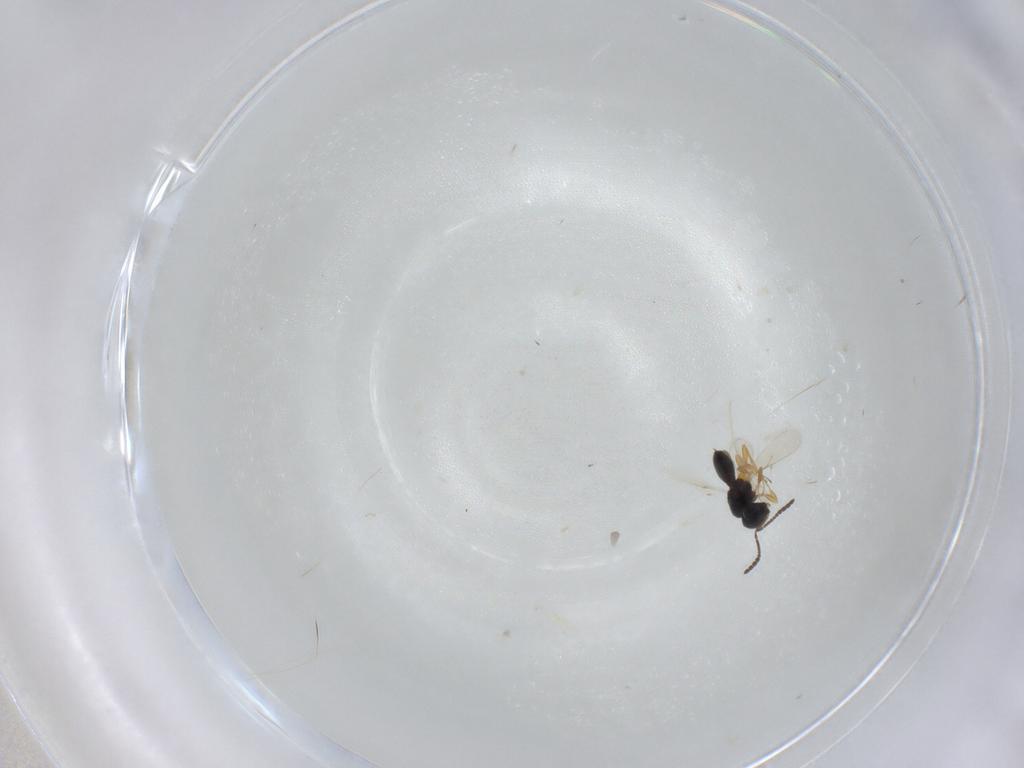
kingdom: Animalia
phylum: Arthropoda
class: Insecta
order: Hymenoptera
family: Scelionidae
